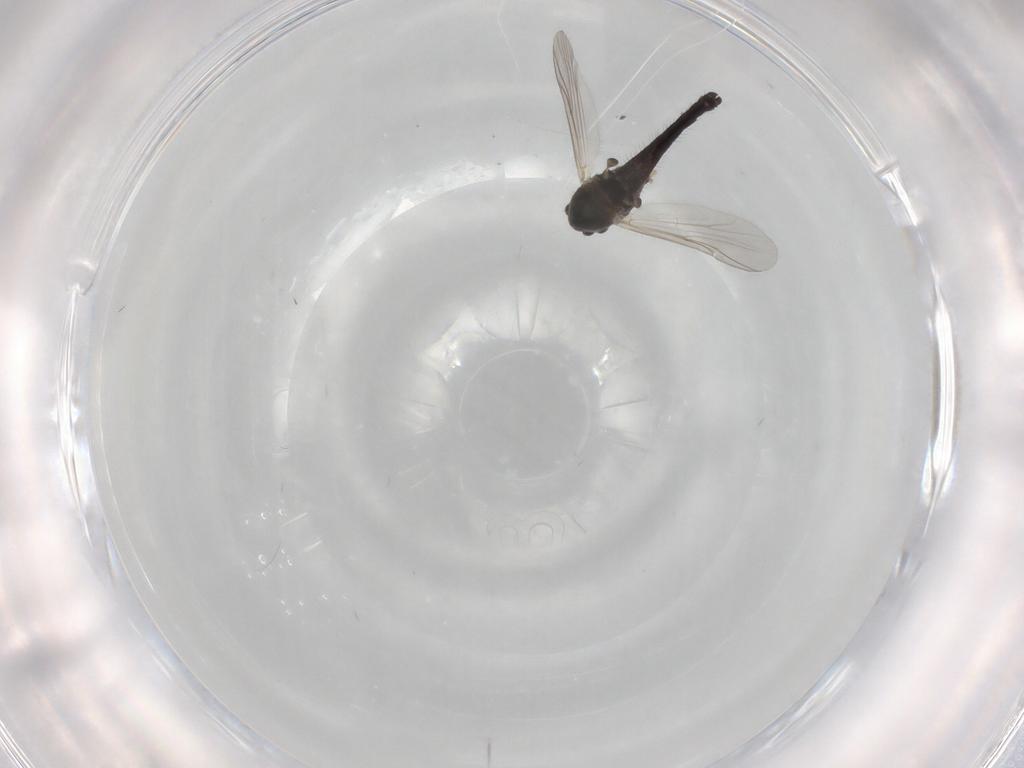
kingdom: Animalia
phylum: Arthropoda
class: Insecta
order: Diptera
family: Chironomidae
